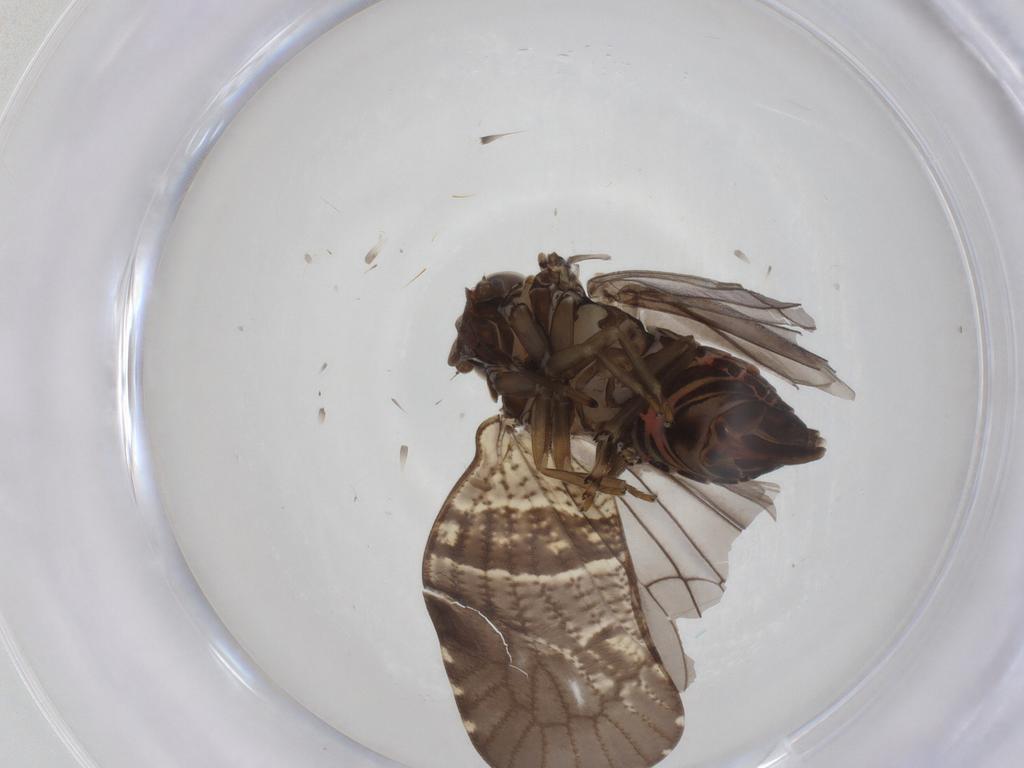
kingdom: Animalia
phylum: Arthropoda
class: Insecta
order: Hemiptera
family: Cixiidae
